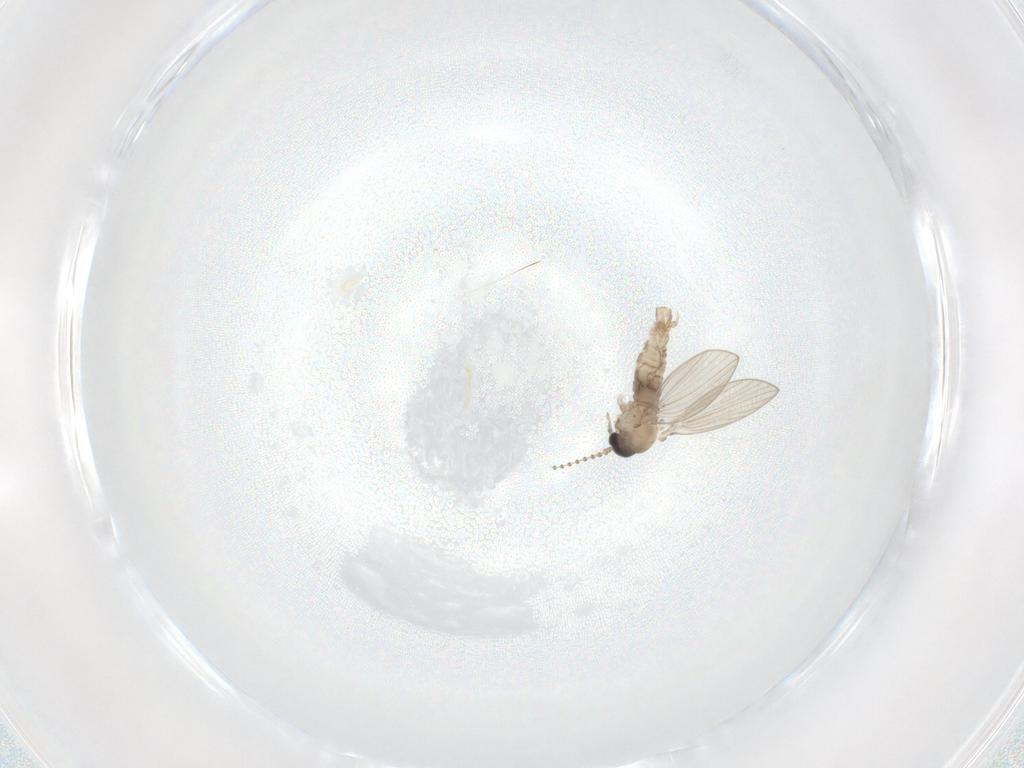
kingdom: Animalia
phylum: Arthropoda
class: Insecta
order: Diptera
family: Psychodidae
